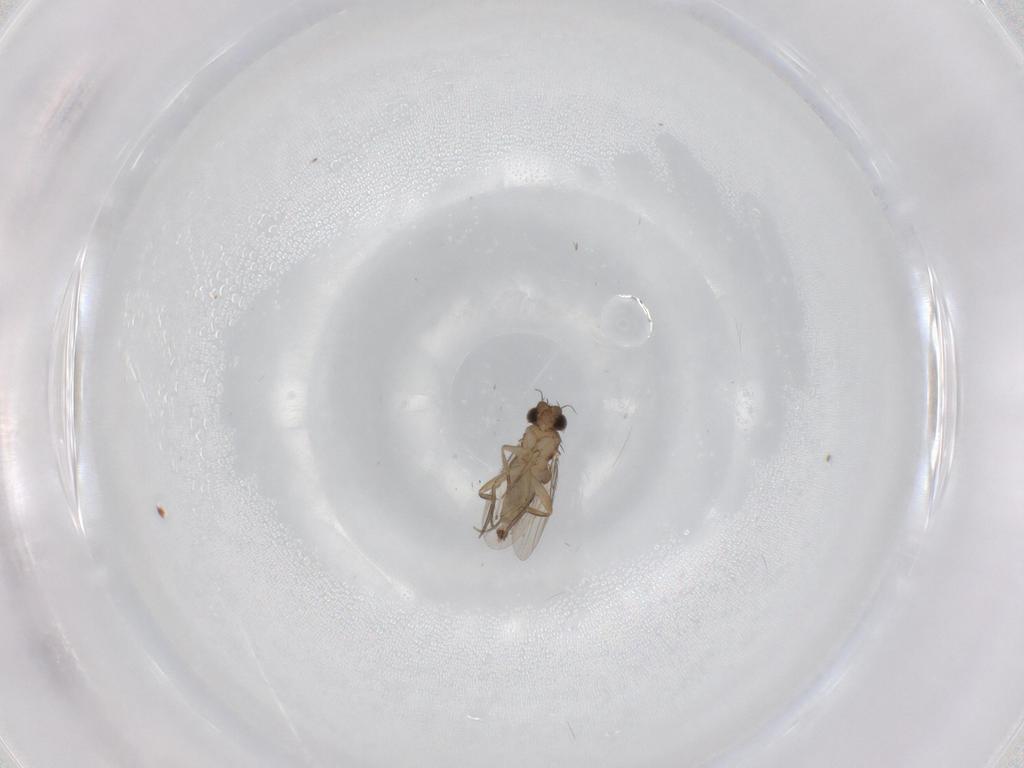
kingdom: Animalia
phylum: Arthropoda
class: Insecta
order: Diptera
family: Phoridae
